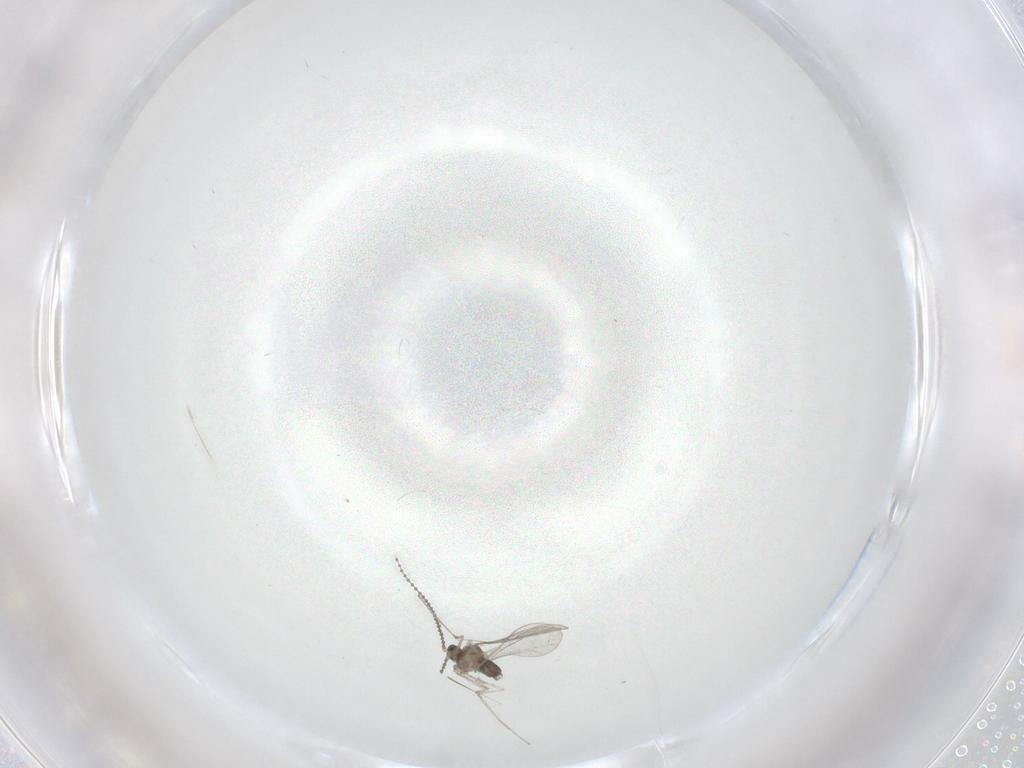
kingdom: Animalia
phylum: Arthropoda
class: Insecta
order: Diptera
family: Cecidomyiidae
